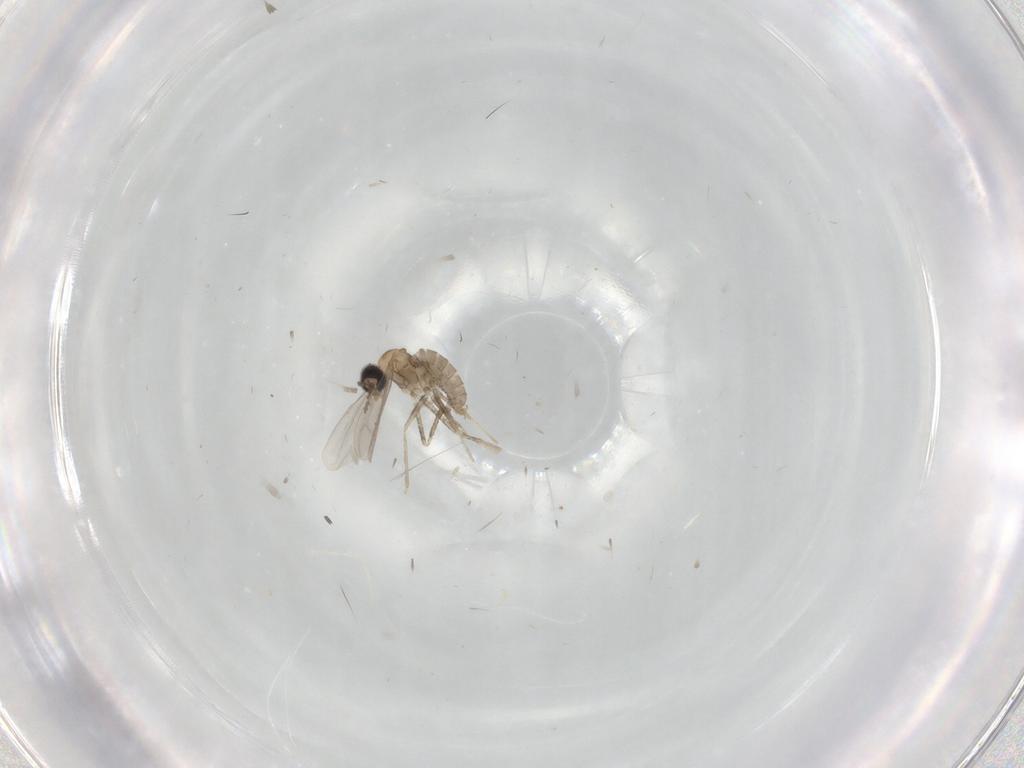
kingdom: Animalia
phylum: Arthropoda
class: Insecta
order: Diptera
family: Cecidomyiidae
